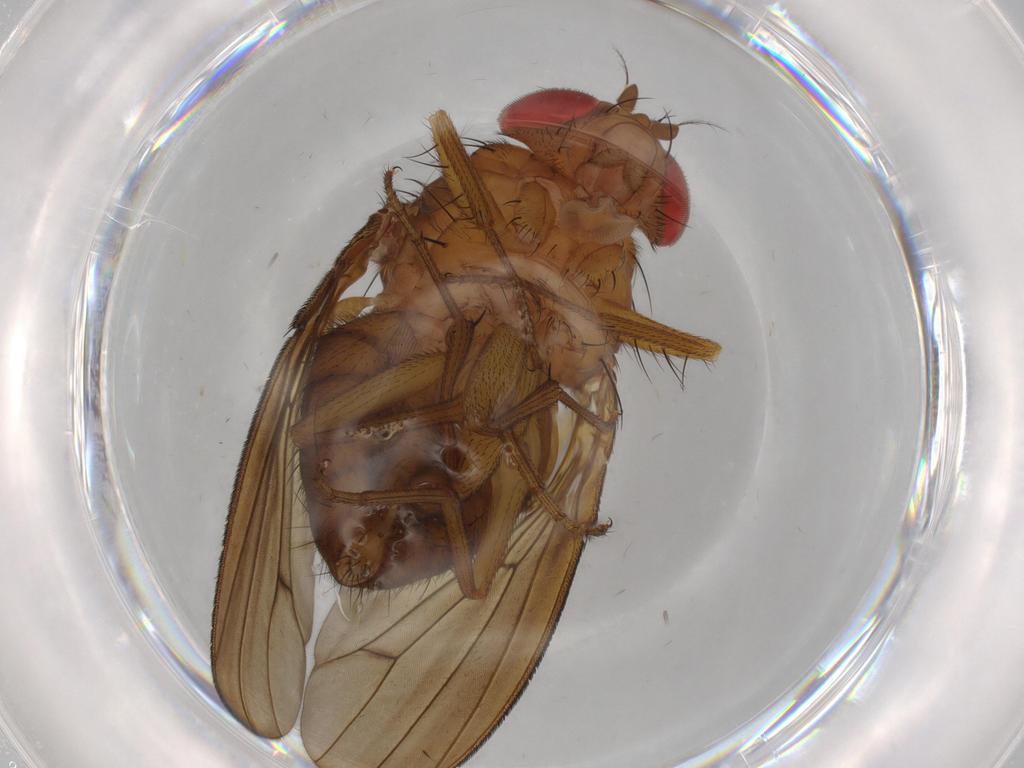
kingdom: Animalia
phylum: Arthropoda
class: Insecta
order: Diptera
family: Drosophilidae
